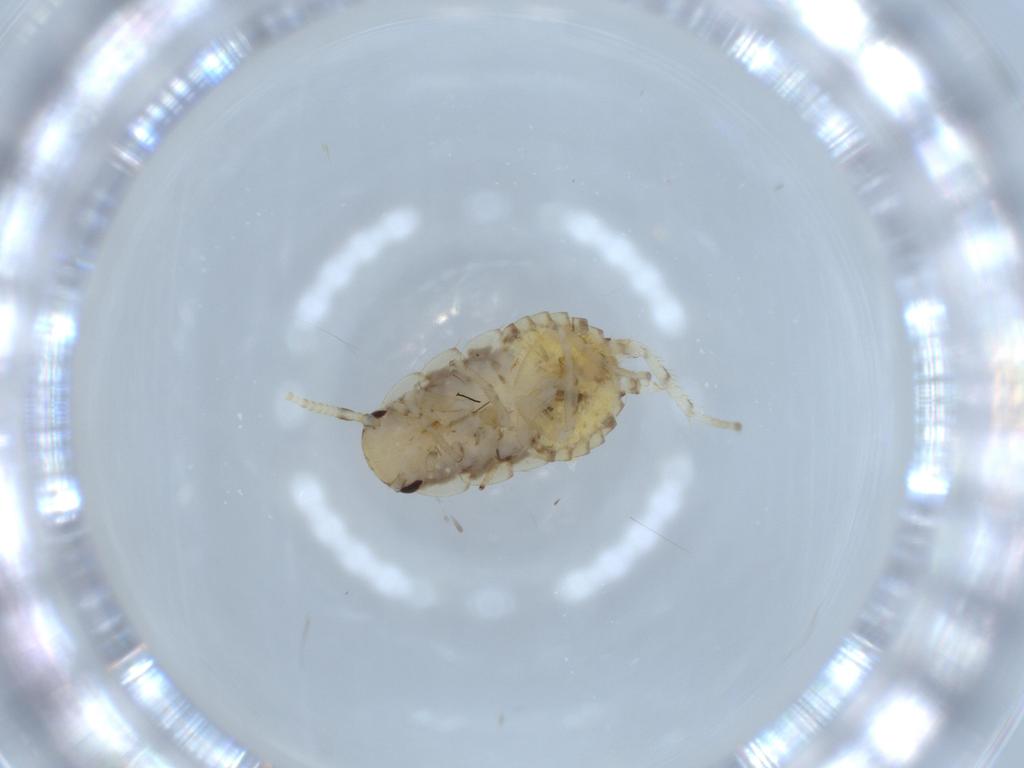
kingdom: Animalia
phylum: Arthropoda
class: Insecta
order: Blattodea
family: Ectobiidae
